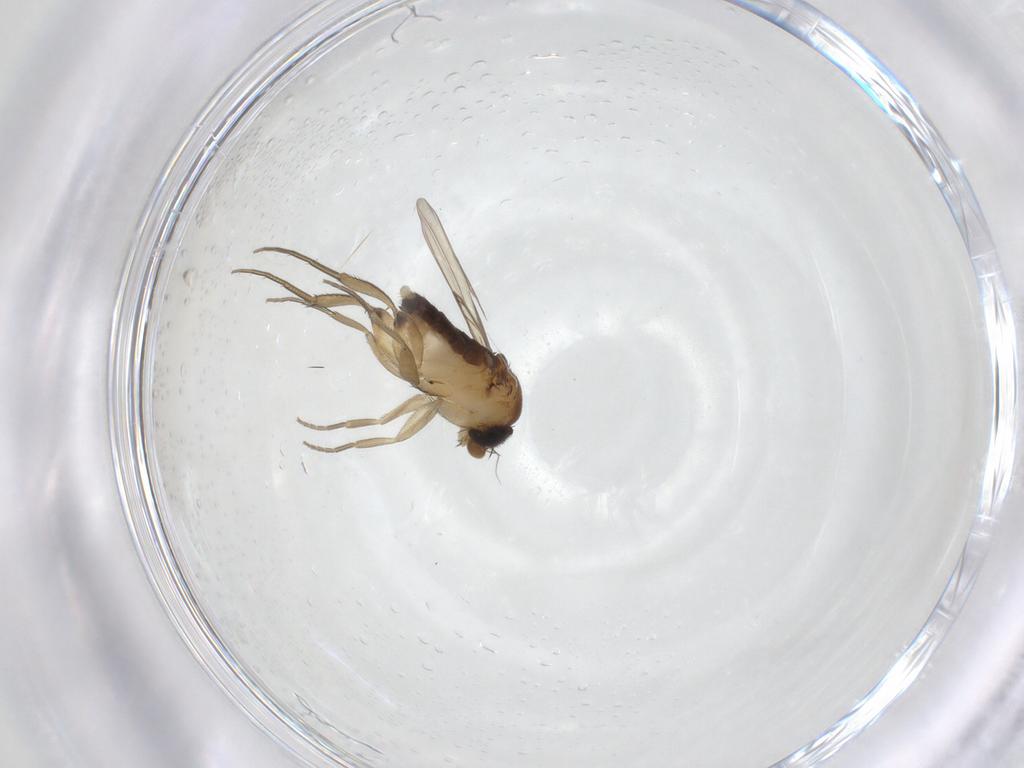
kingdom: Animalia
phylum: Arthropoda
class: Insecta
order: Diptera
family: Phoridae
